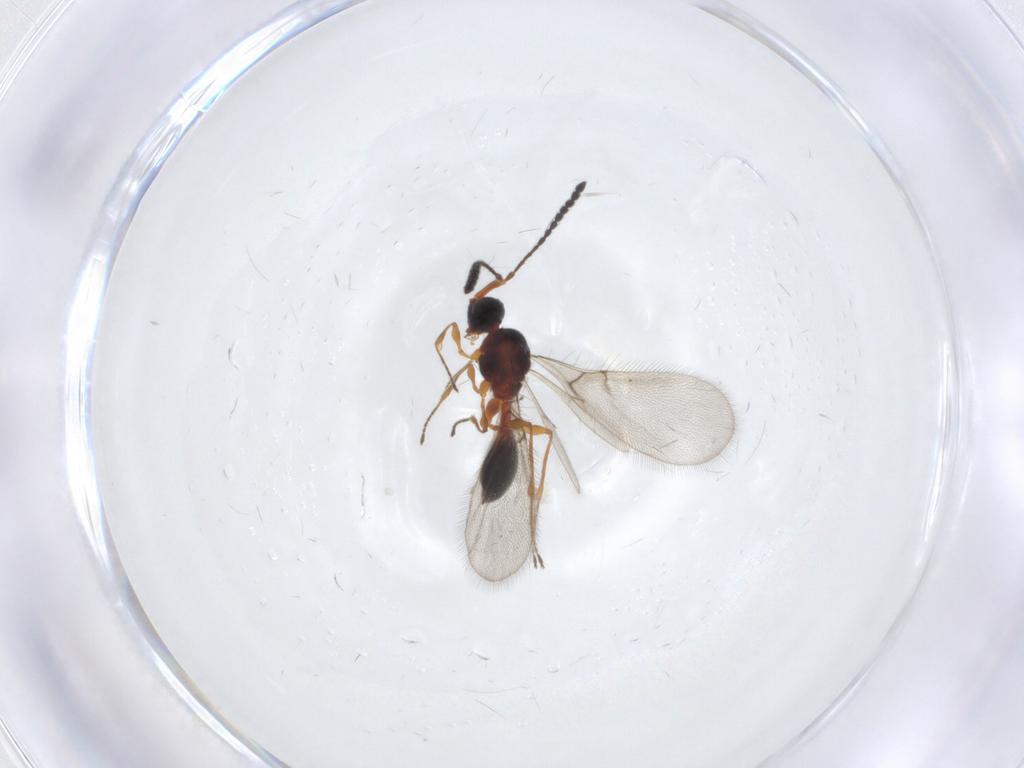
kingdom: Animalia
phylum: Arthropoda
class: Insecta
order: Hymenoptera
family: Diapriidae
